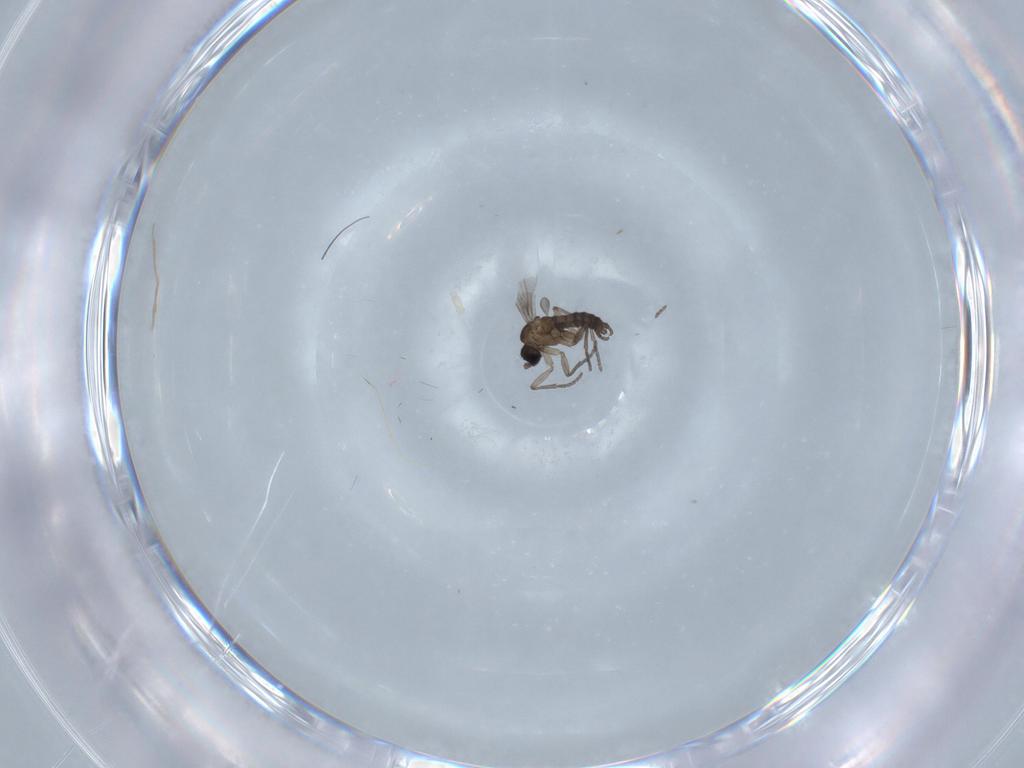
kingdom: Animalia
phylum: Arthropoda
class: Insecta
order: Diptera
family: Sciaridae
